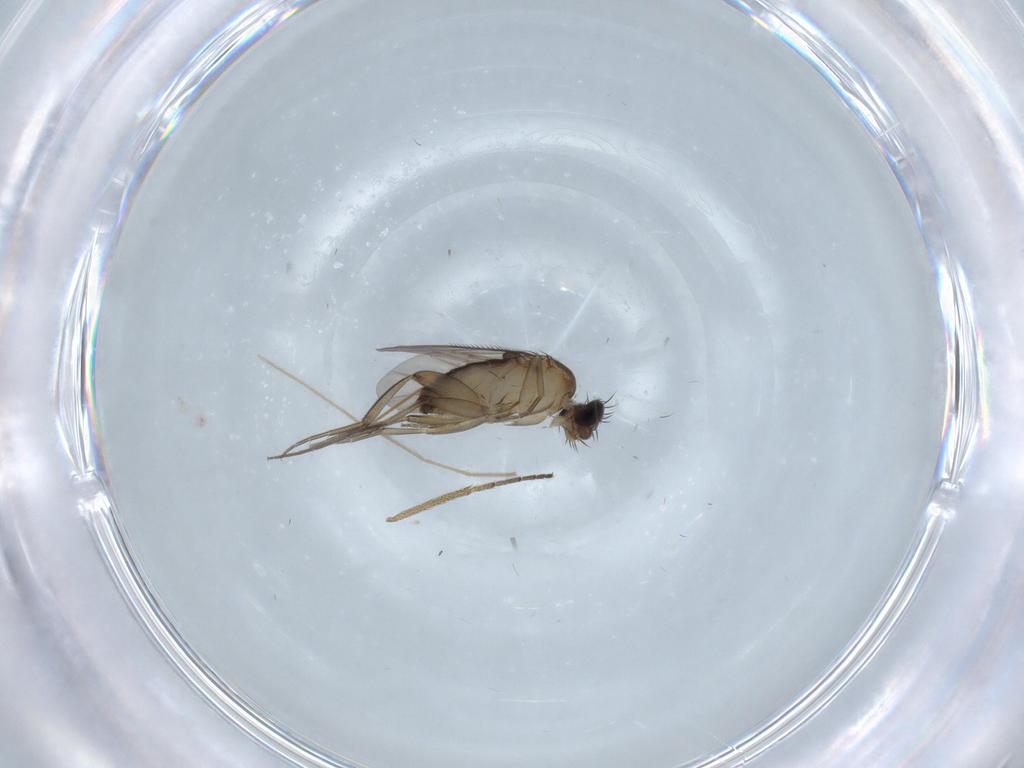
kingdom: Animalia
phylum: Arthropoda
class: Insecta
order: Diptera
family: Phoridae
